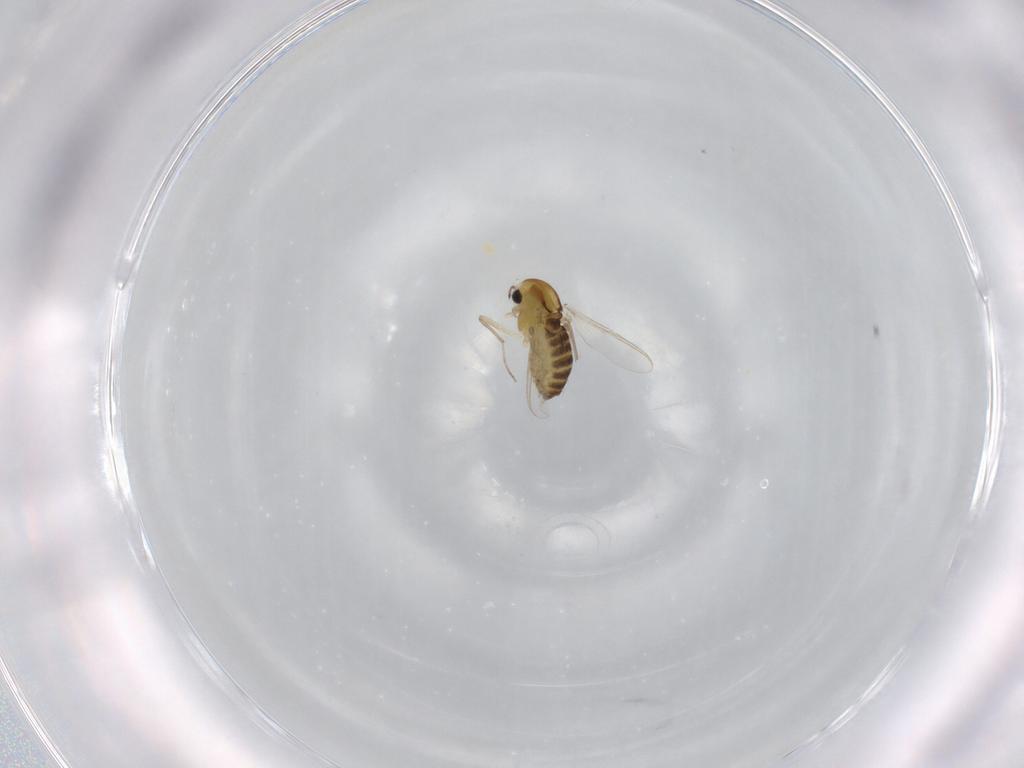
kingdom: Animalia
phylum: Arthropoda
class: Insecta
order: Diptera
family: Chironomidae
